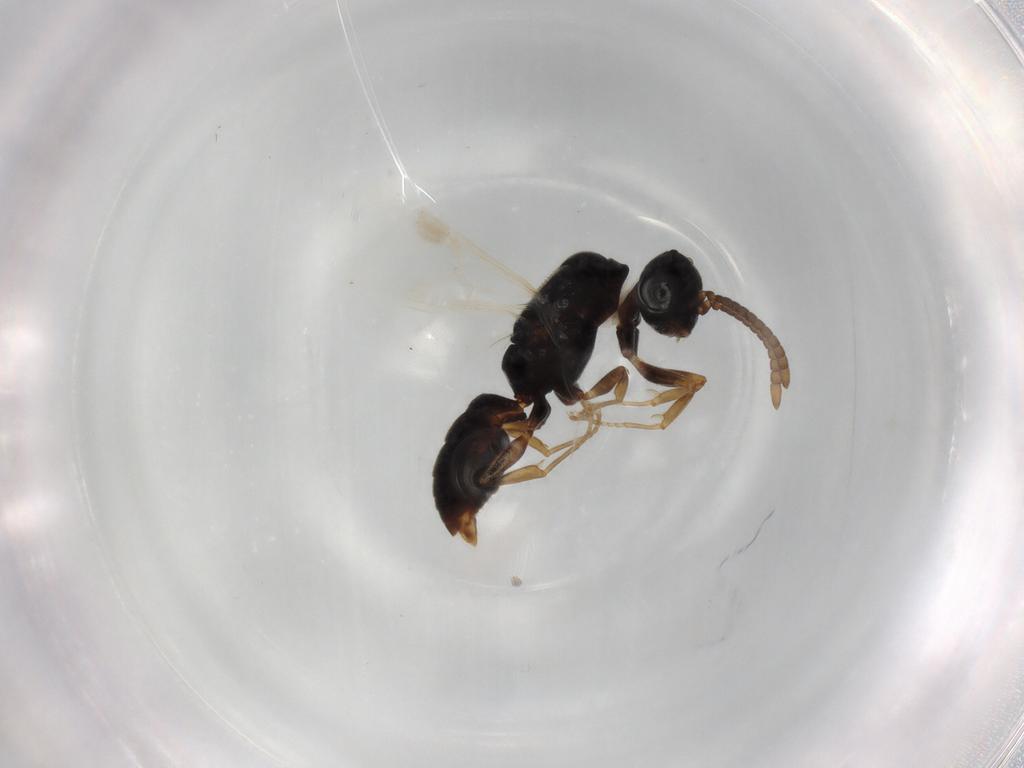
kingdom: Animalia
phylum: Arthropoda
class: Insecta
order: Hymenoptera
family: Formicidae
